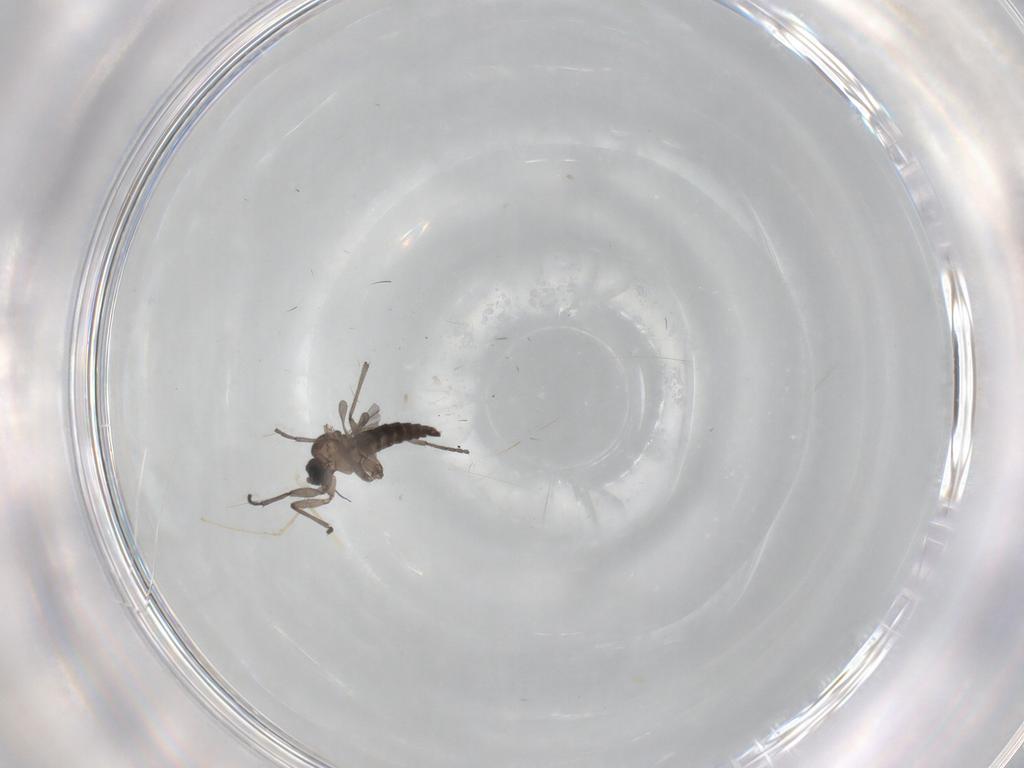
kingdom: Animalia
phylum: Arthropoda
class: Insecta
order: Diptera
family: Sciaridae
